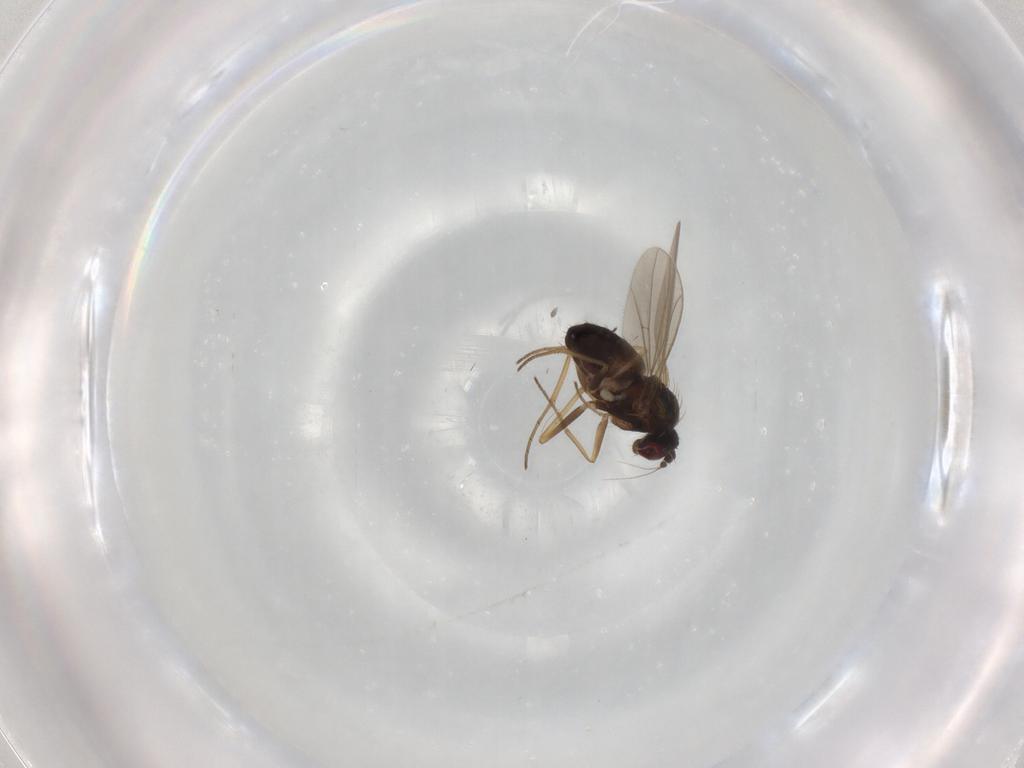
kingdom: Animalia
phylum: Arthropoda
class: Insecta
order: Diptera
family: Dolichopodidae
